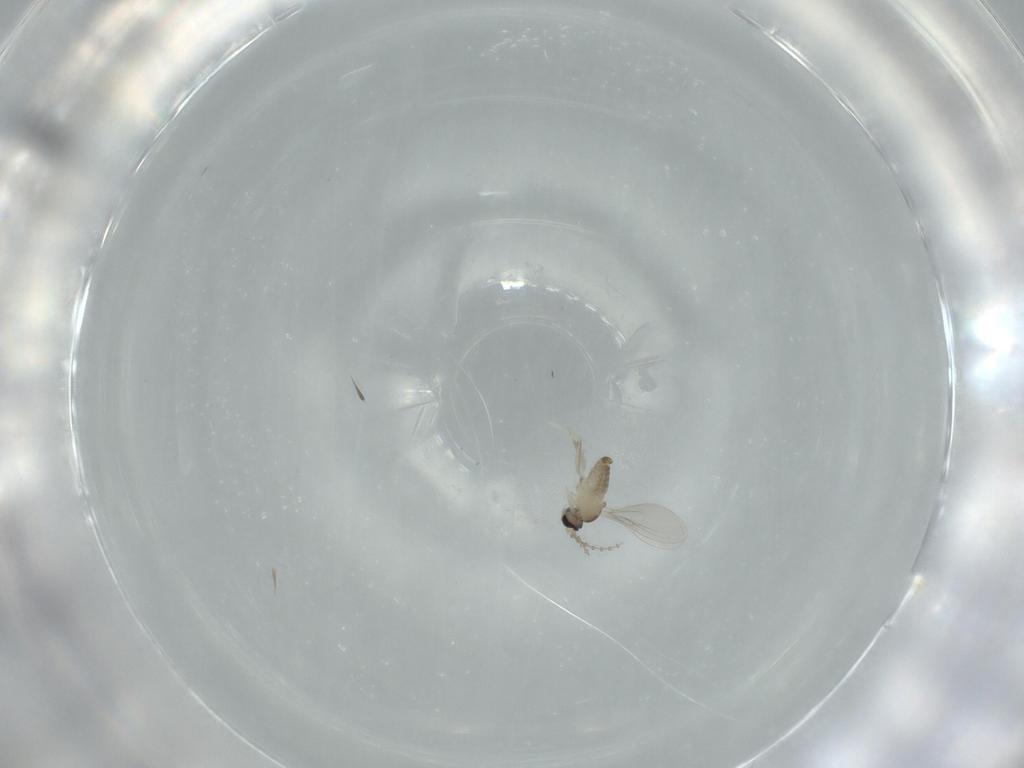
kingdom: Animalia
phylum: Arthropoda
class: Insecta
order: Diptera
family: Cecidomyiidae
